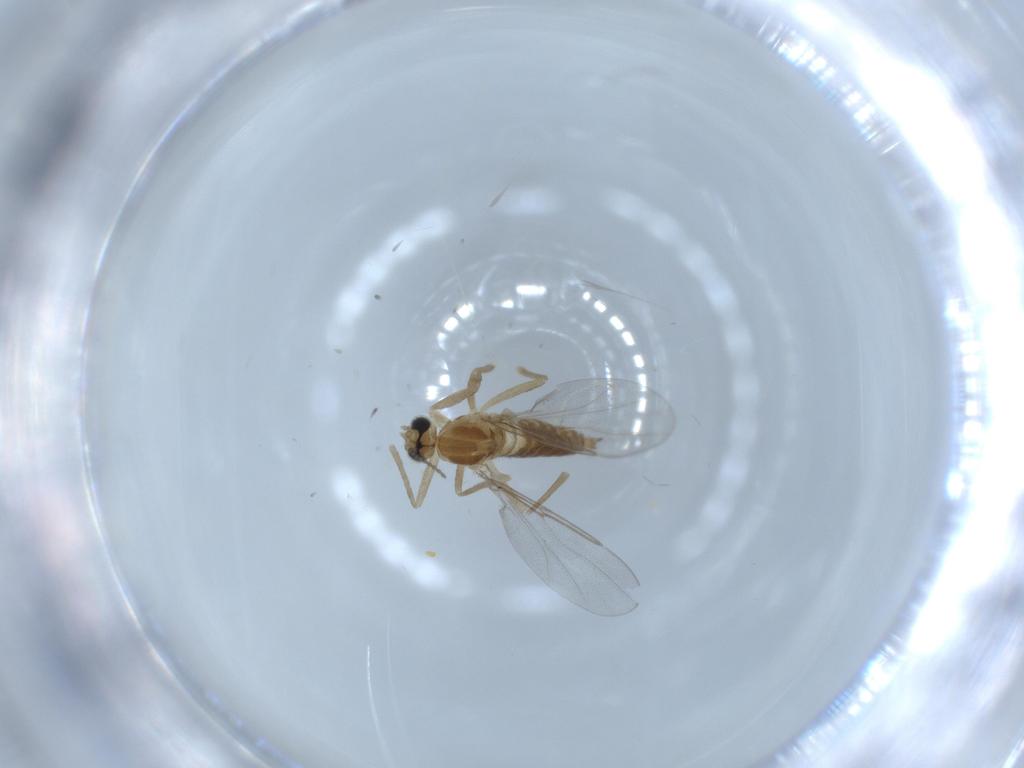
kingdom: Animalia
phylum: Arthropoda
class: Insecta
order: Diptera
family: Cecidomyiidae
